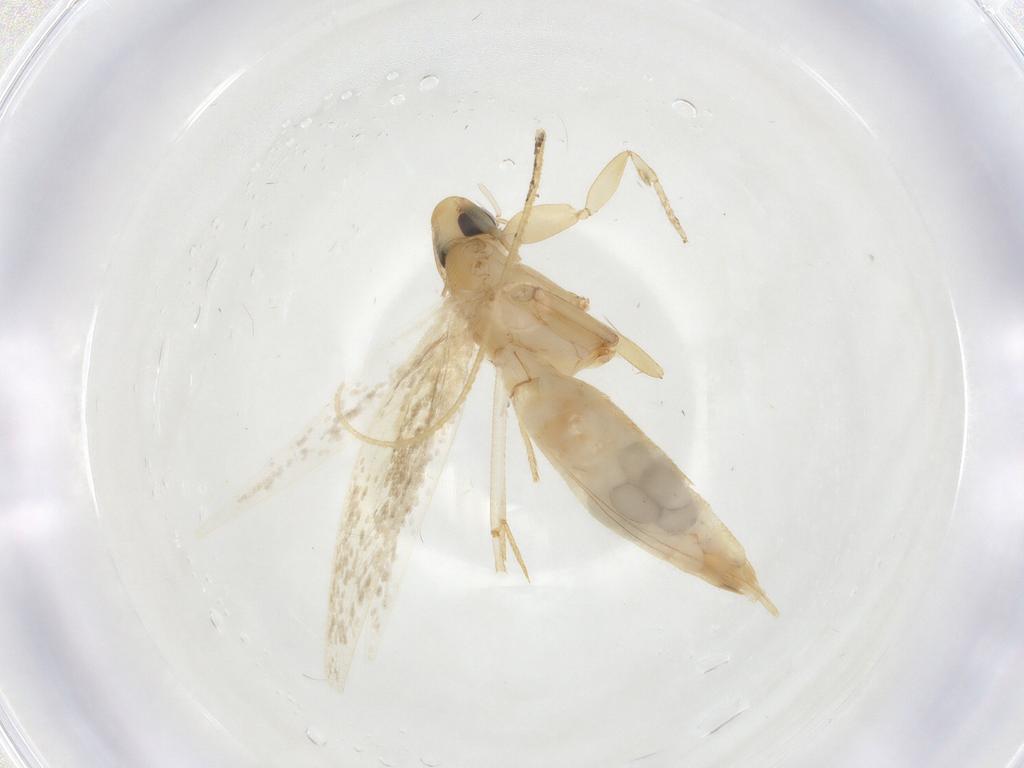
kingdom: Animalia
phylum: Arthropoda
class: Insecta
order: Lepidoptera
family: Tineidae
